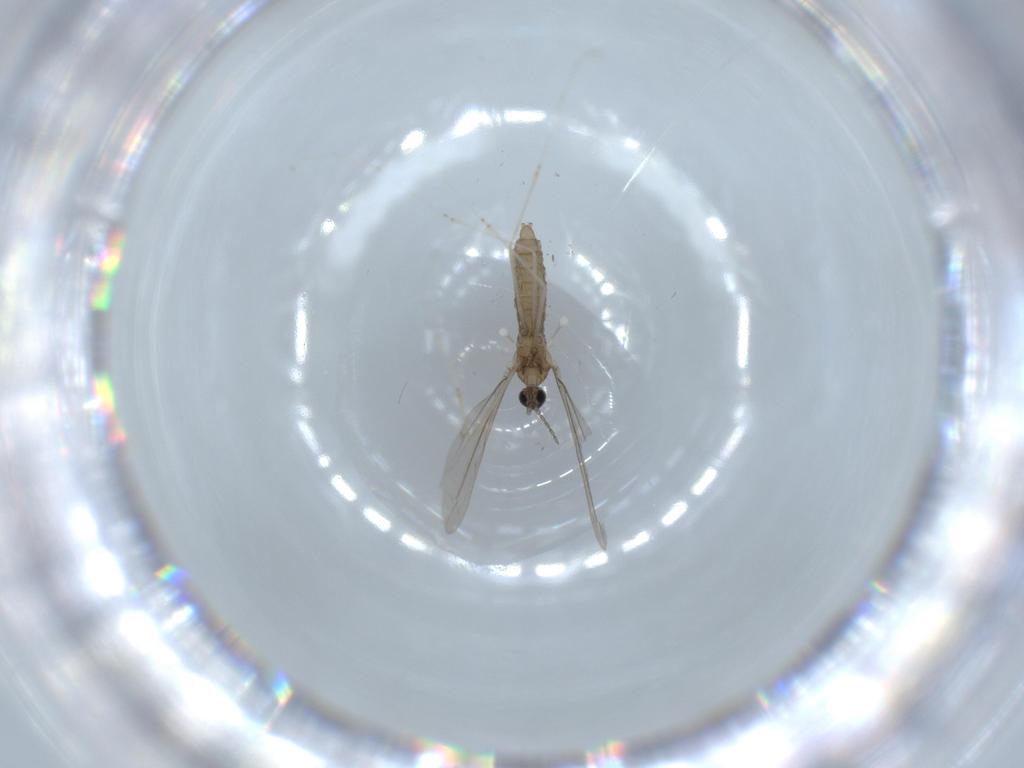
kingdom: Animalia
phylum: Arthropoda
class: Insecta
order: Diptera
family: Cecidomyiidae
